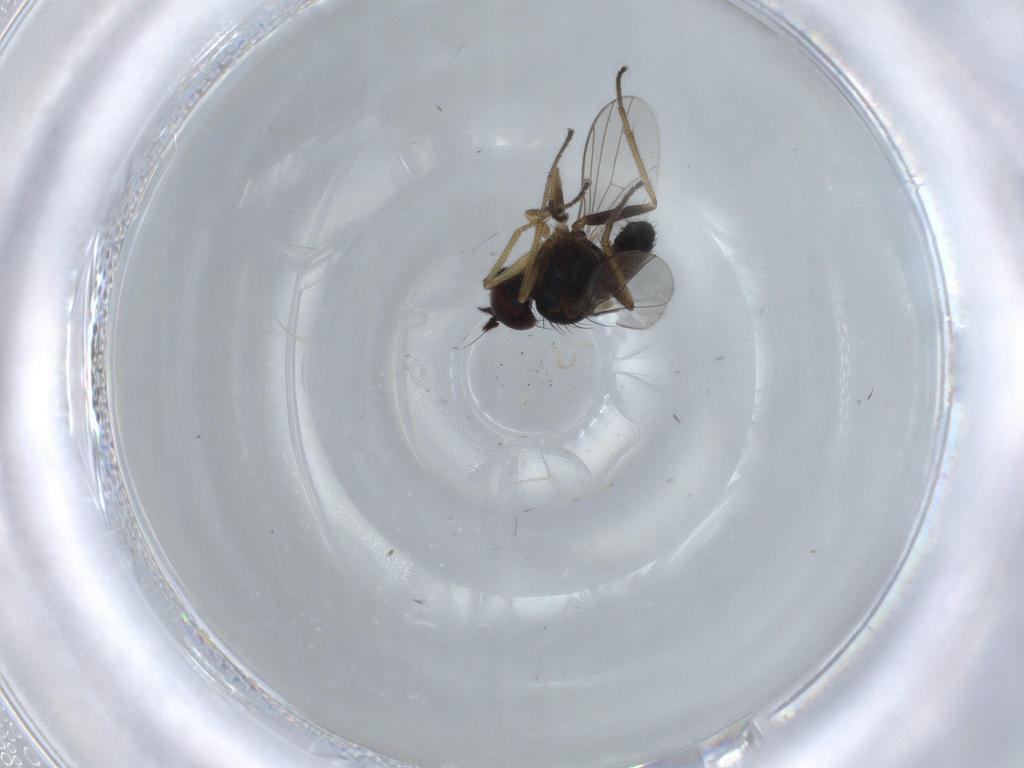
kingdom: Animalia
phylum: Arthropoda
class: Insecta
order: Diptera
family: Dolichopodidae
